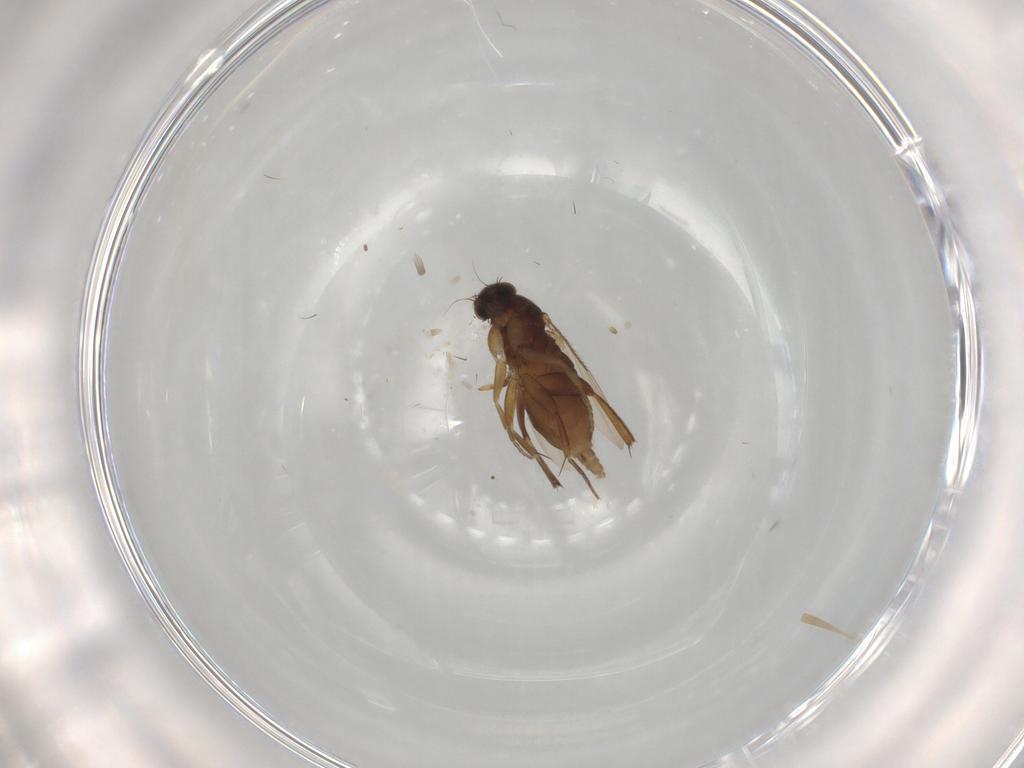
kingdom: Animalia
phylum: Arthropoda
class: Insecta
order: Diptera
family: Phoridae
